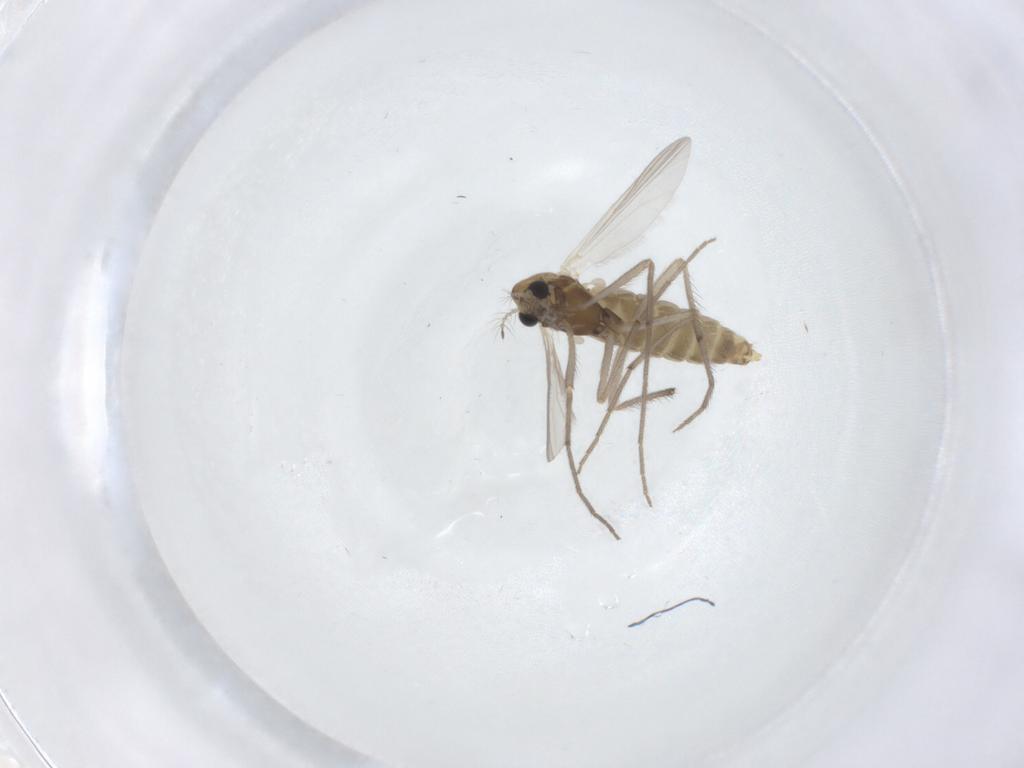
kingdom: Animalia
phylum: Arthropoda
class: Insecta
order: Diptera
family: Chironomidae
